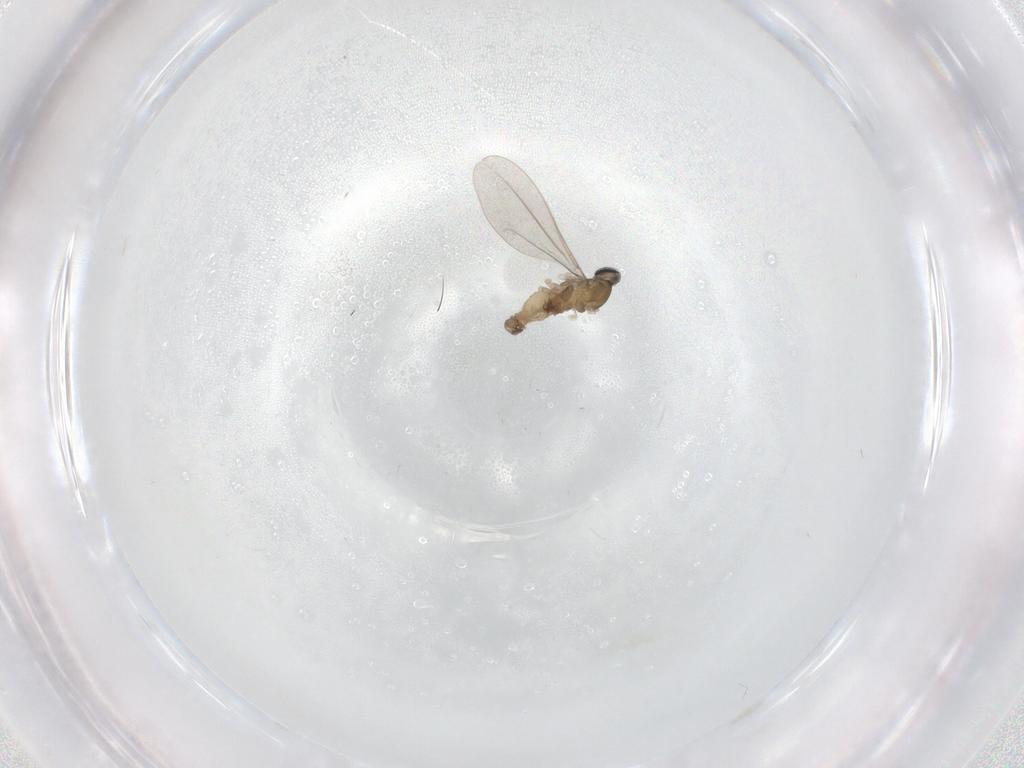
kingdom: Animalia
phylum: Arthropoda
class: Insecta
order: Diptera
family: Cecidomyiidae
